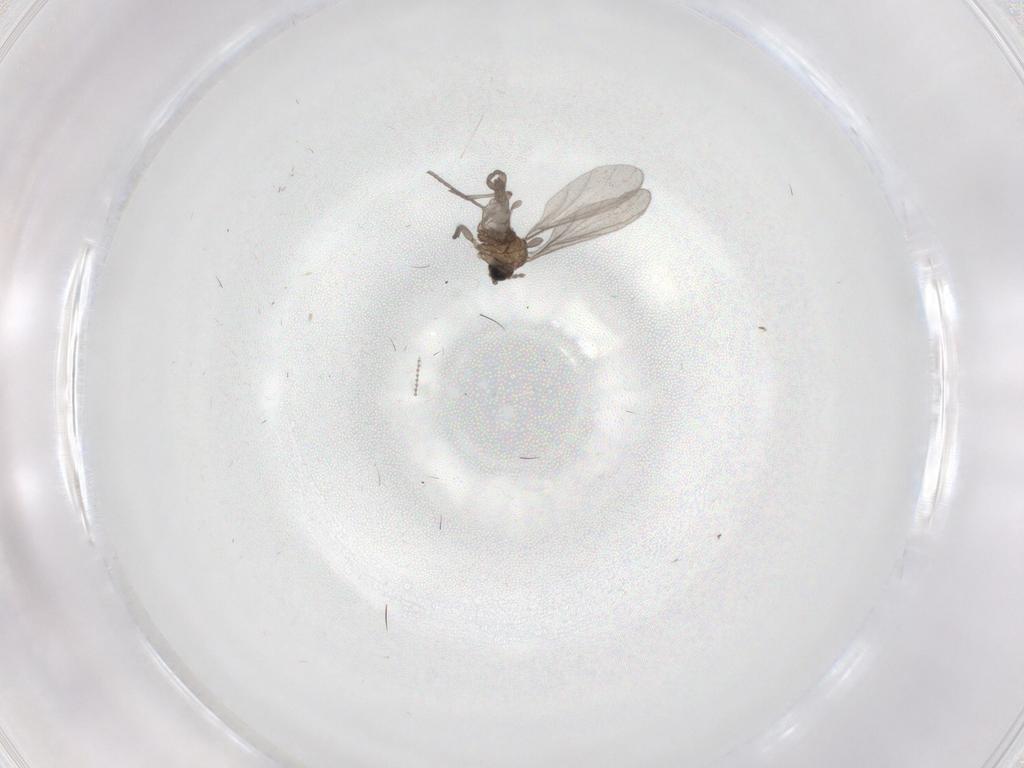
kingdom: Animalia
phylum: Arthropoda
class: Insecta
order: Diptera
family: Sciaridae
